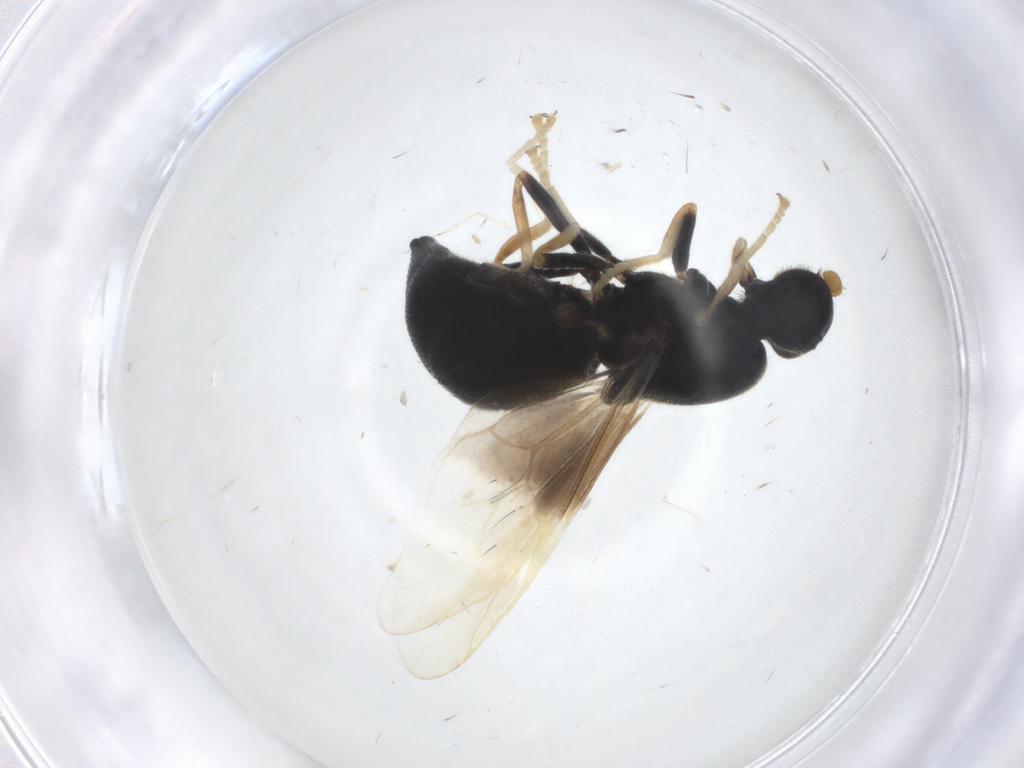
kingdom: Animalia
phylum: Arthropoda
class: Insecta
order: Diptera
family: Stratiomyidae
